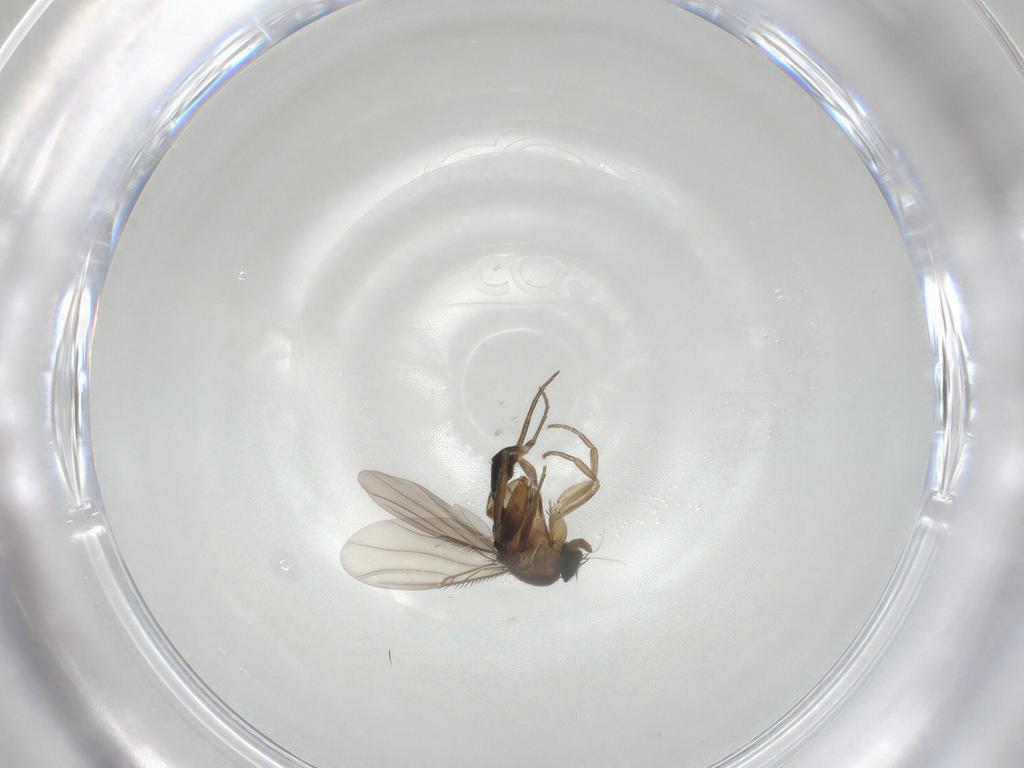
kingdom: Animalia
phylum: Arthropoda
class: Insecta
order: Diptera
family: Phoridae
